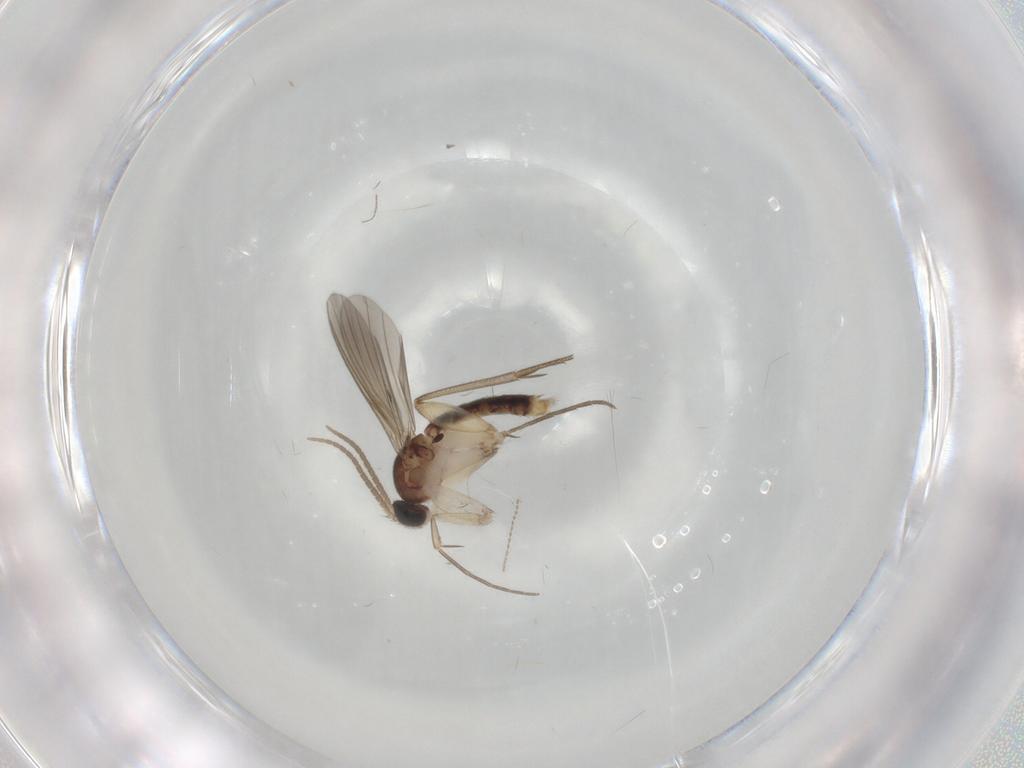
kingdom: Animalia
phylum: Arthropoda
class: Insecta
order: Diptera
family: Mycetophilidae
